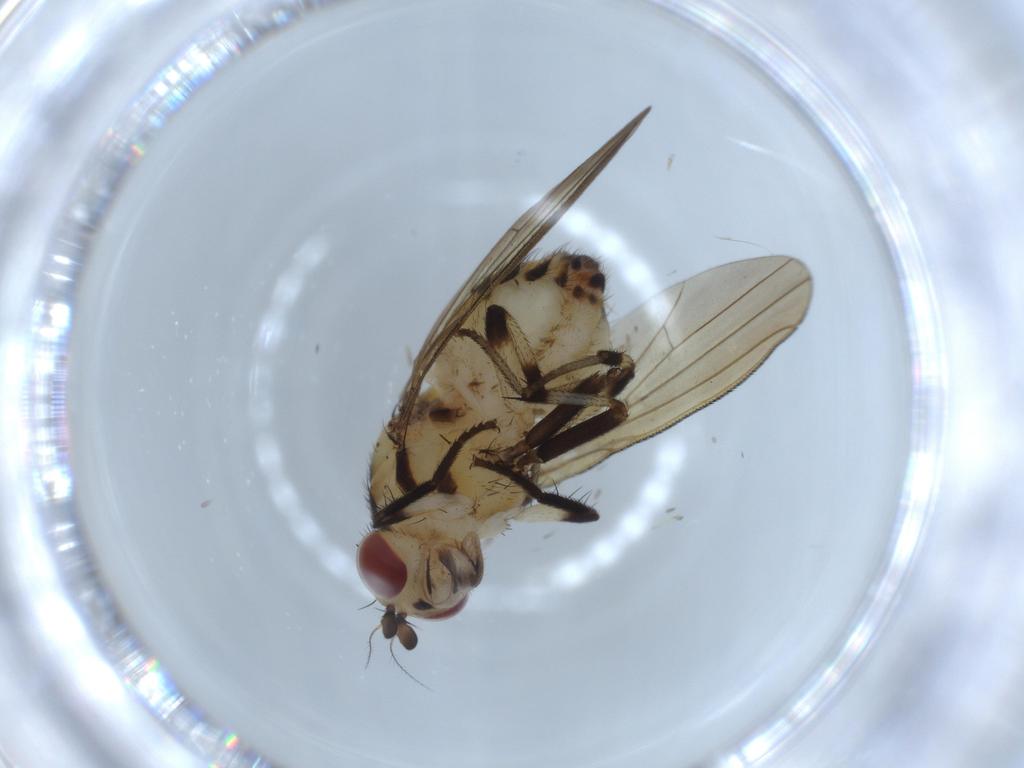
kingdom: Animalia
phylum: Arthropoda
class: Insecta
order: Diptera
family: Lauxaniidae
